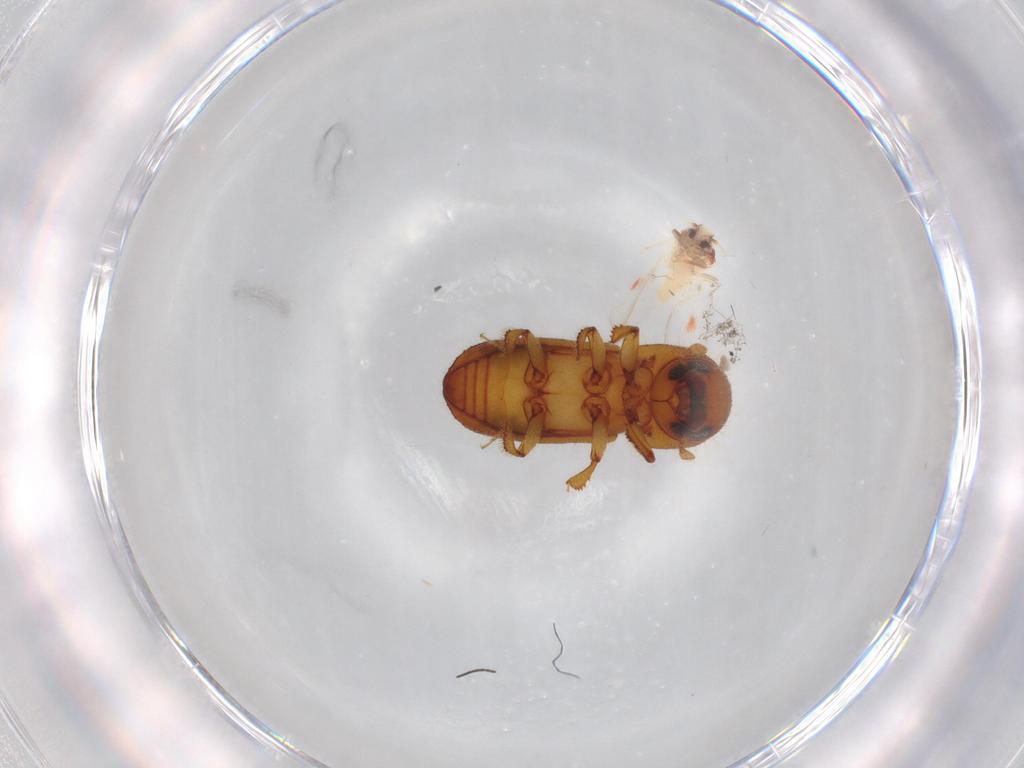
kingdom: Animalia
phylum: Arthropoda
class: Insecta
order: Hemiptera
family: Aleyrodidae
